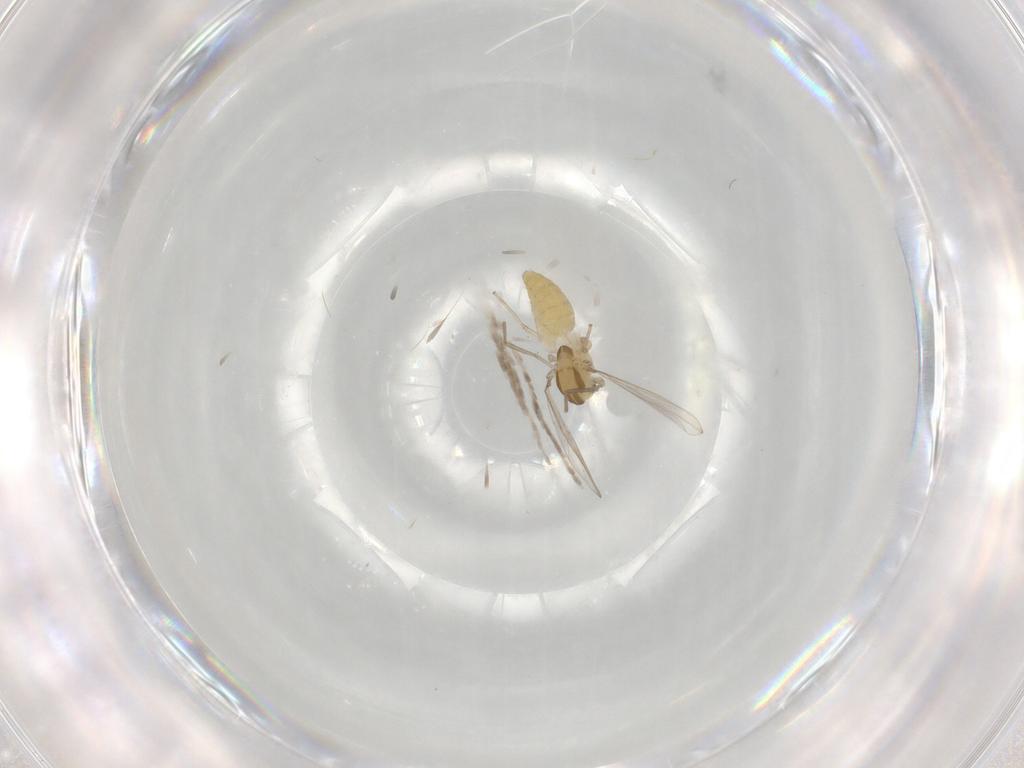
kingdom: Animalia
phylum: Arthropoda
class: Insecta
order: Diptera
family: Chironomidae
